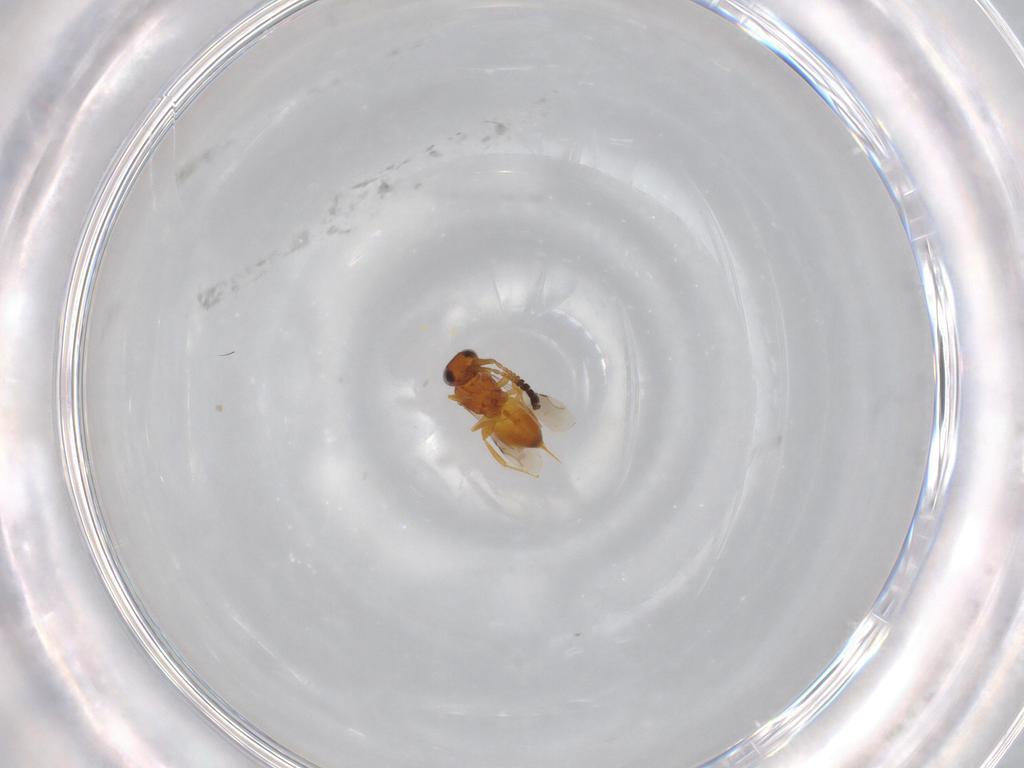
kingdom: Animalia
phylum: Arthropoda
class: Insecta
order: Hymenoptera
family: Ceraphronidae
